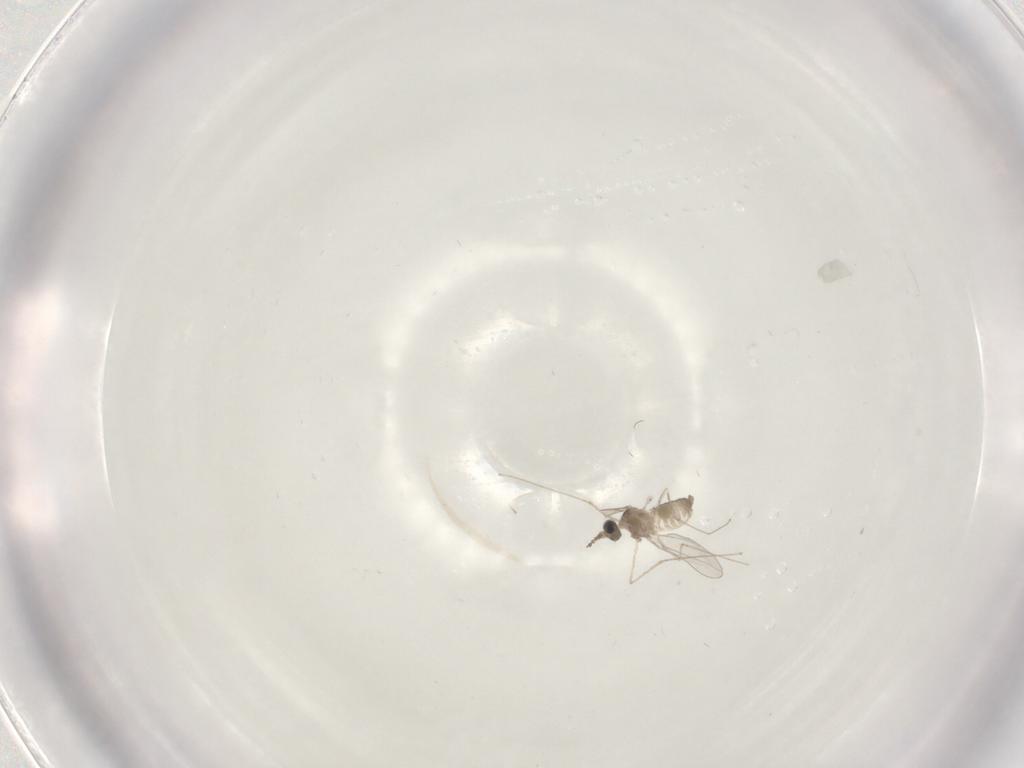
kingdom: Animalia
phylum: Arthropoda
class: Insecta
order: Diptera
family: Cecidomyiidae
